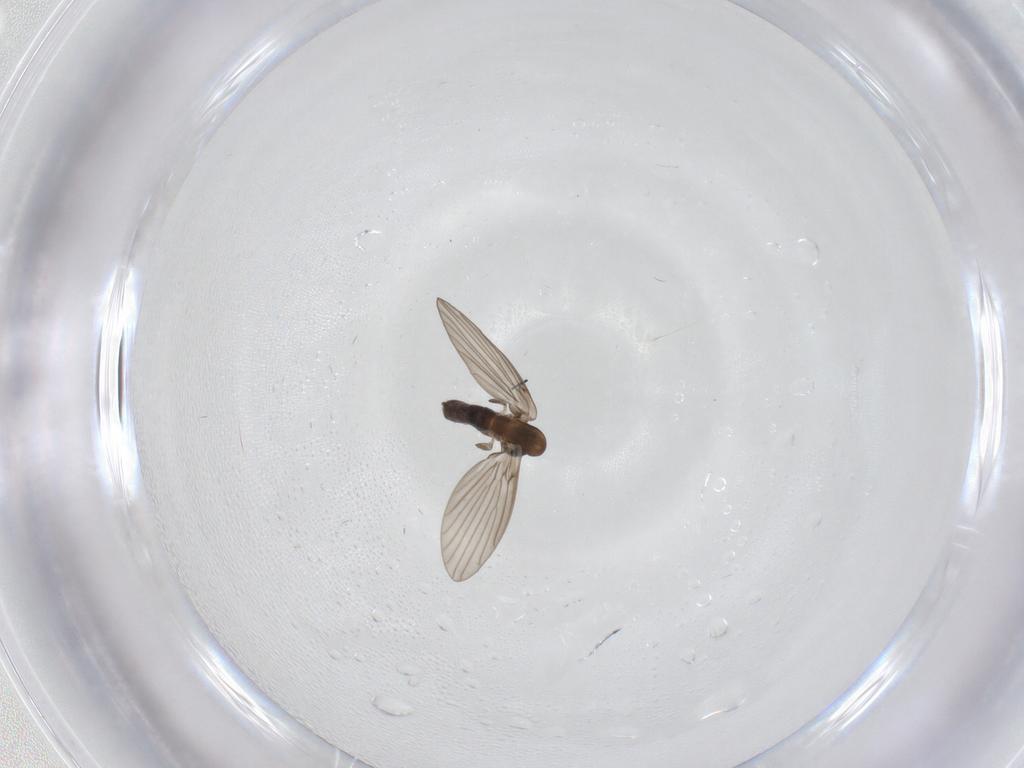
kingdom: Animalia
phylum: Arthropoda
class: Insecta
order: Diptera
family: Psychodidae
